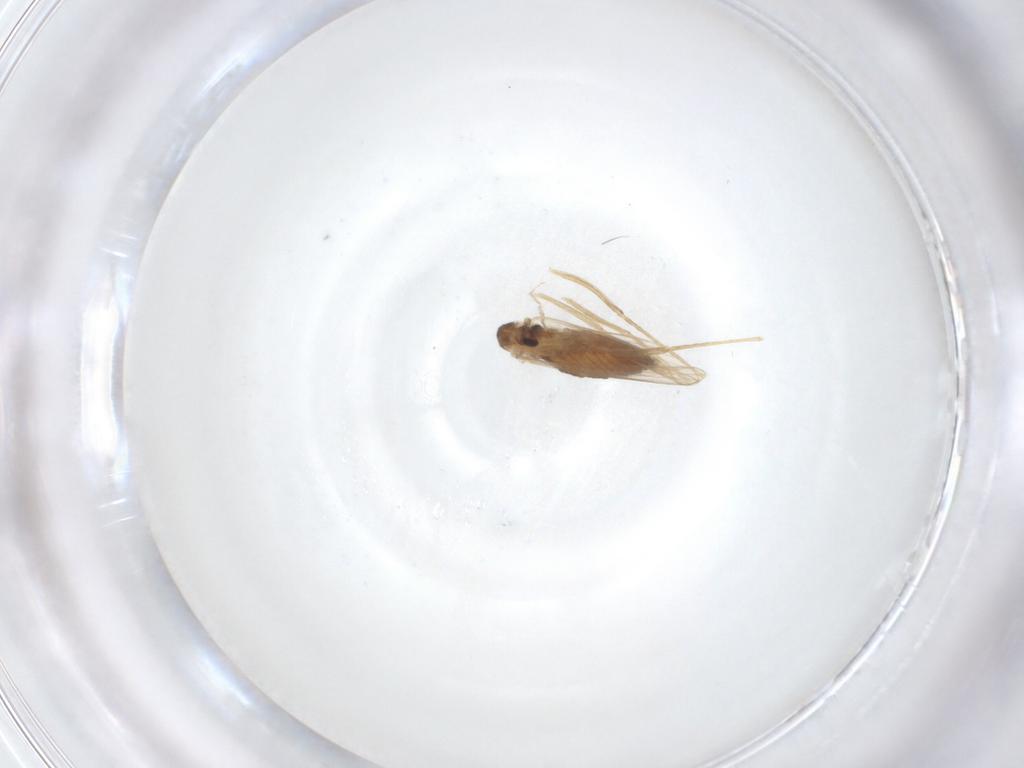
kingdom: Animalia
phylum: Arthropoda
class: Insecta
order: Diptera
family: Psychodidae
